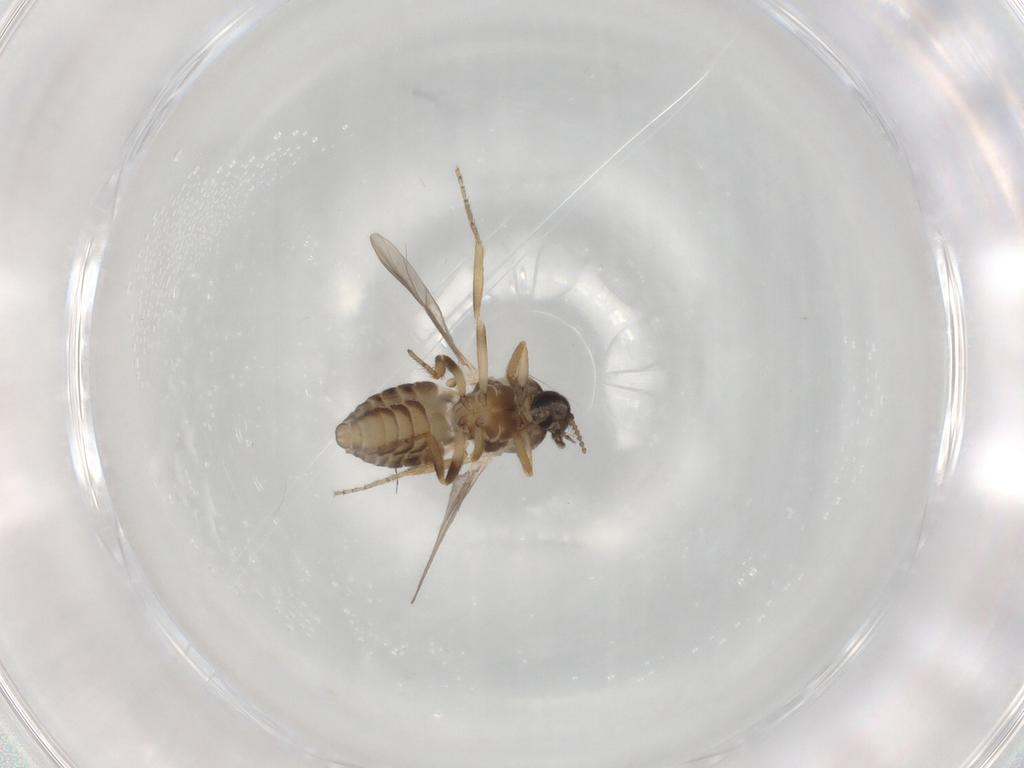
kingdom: Animalia
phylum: Arthropoda
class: Insecta
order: Diptera
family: Ceratopogonidae
